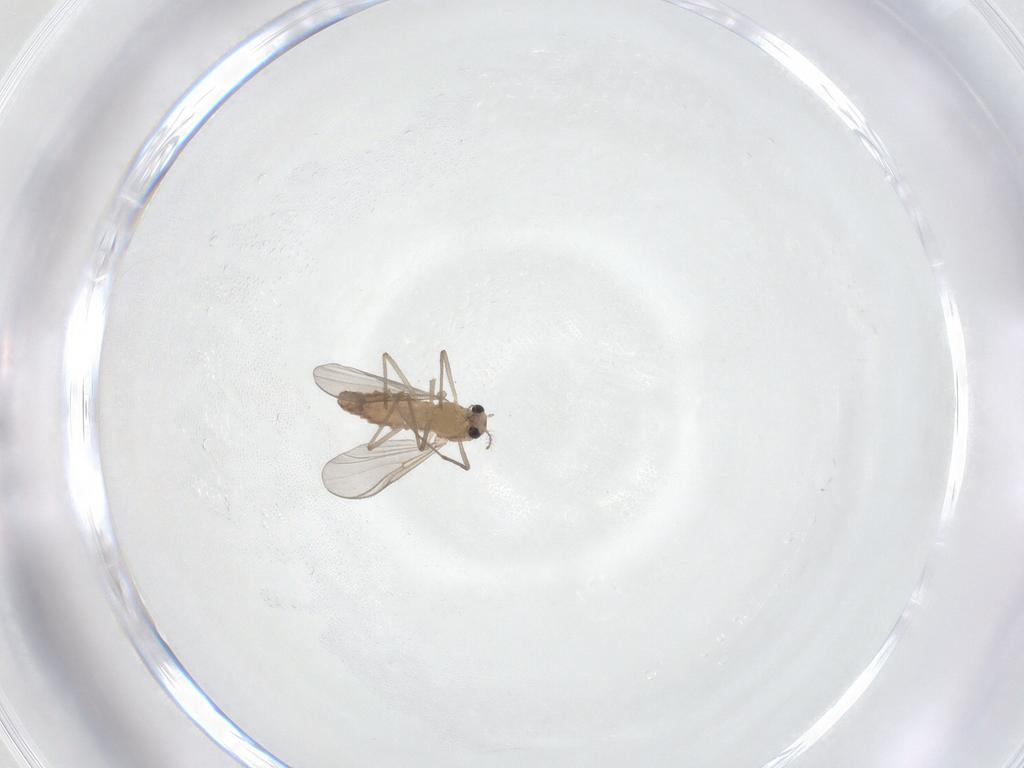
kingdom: Animalia
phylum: Arthropoda
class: Insecta
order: Diptera
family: Chironomidae
